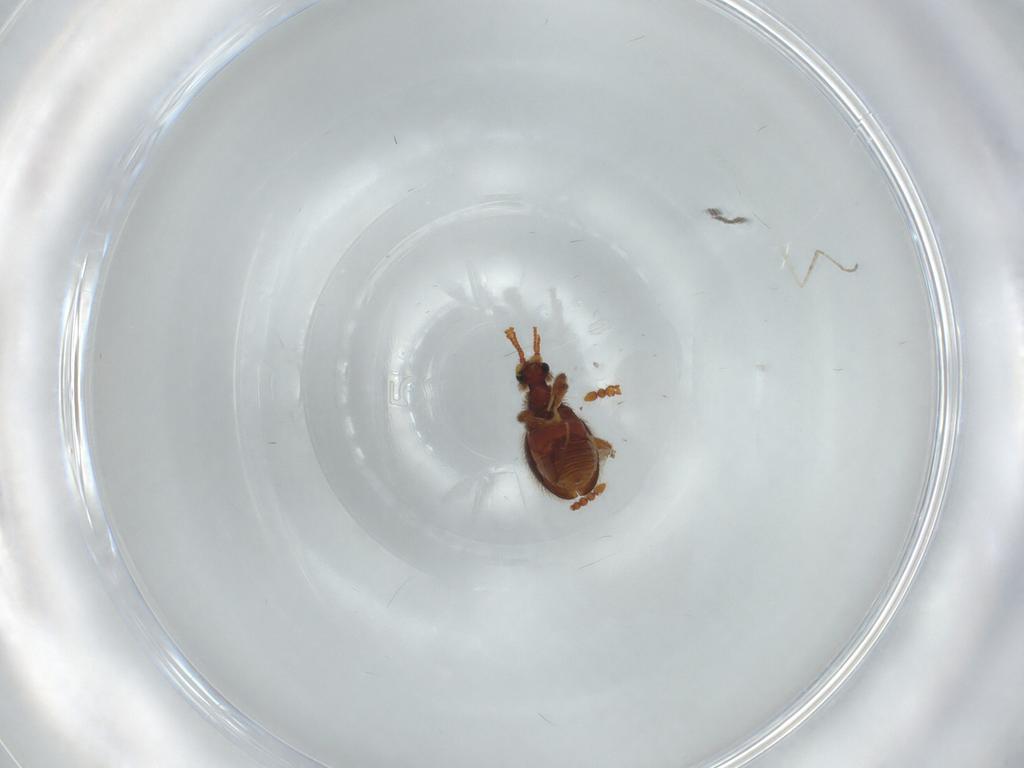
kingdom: Animalia
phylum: Arthropoda
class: Insecta
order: Coleoptera
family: Staphylinidae
